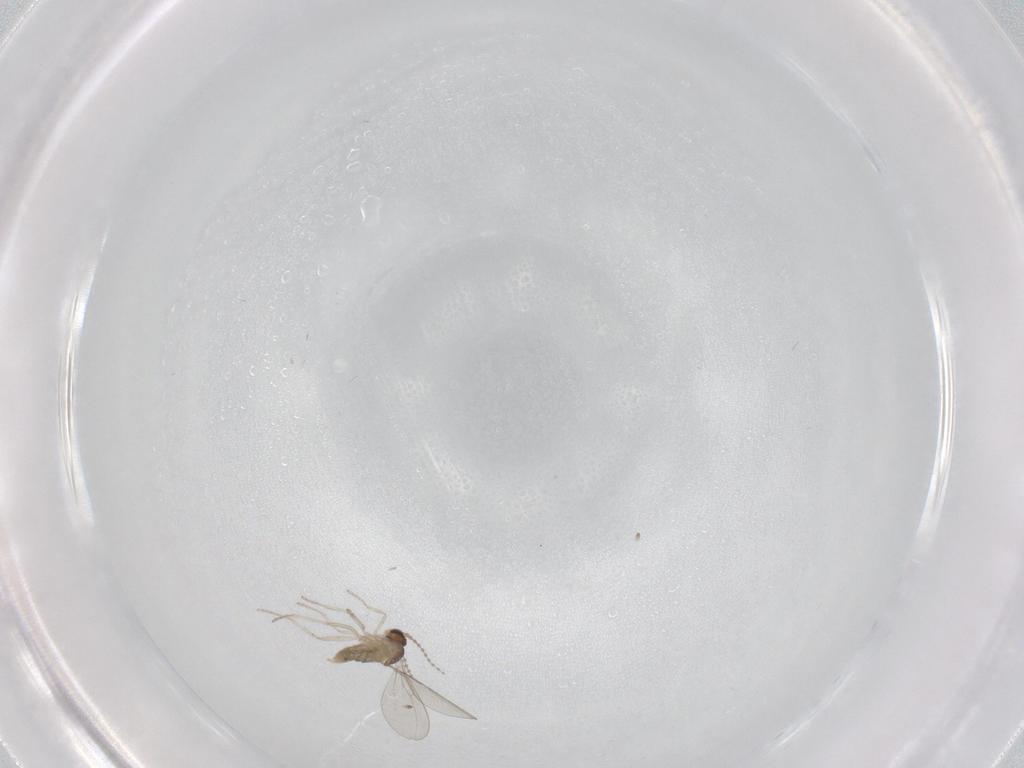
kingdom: Animalia
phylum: Arthropoda
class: Insecta
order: Diptera
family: Cecidomyiidae
